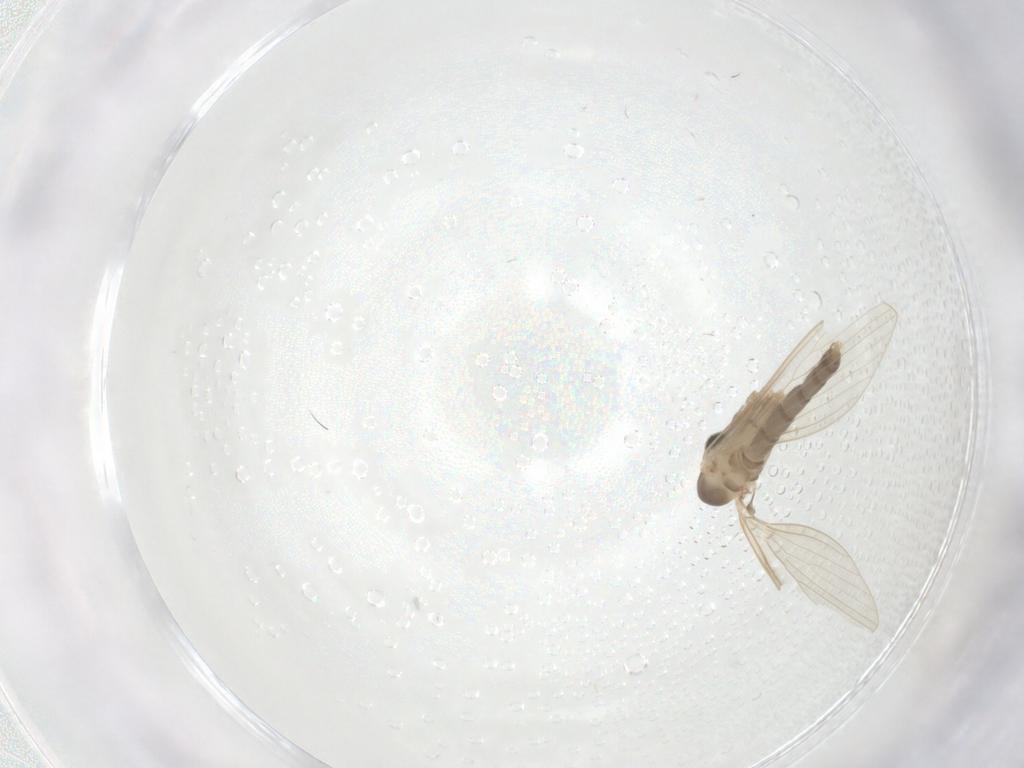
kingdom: Animalia
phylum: Arthropoda
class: Insecta
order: Diptera
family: Psychodidae
